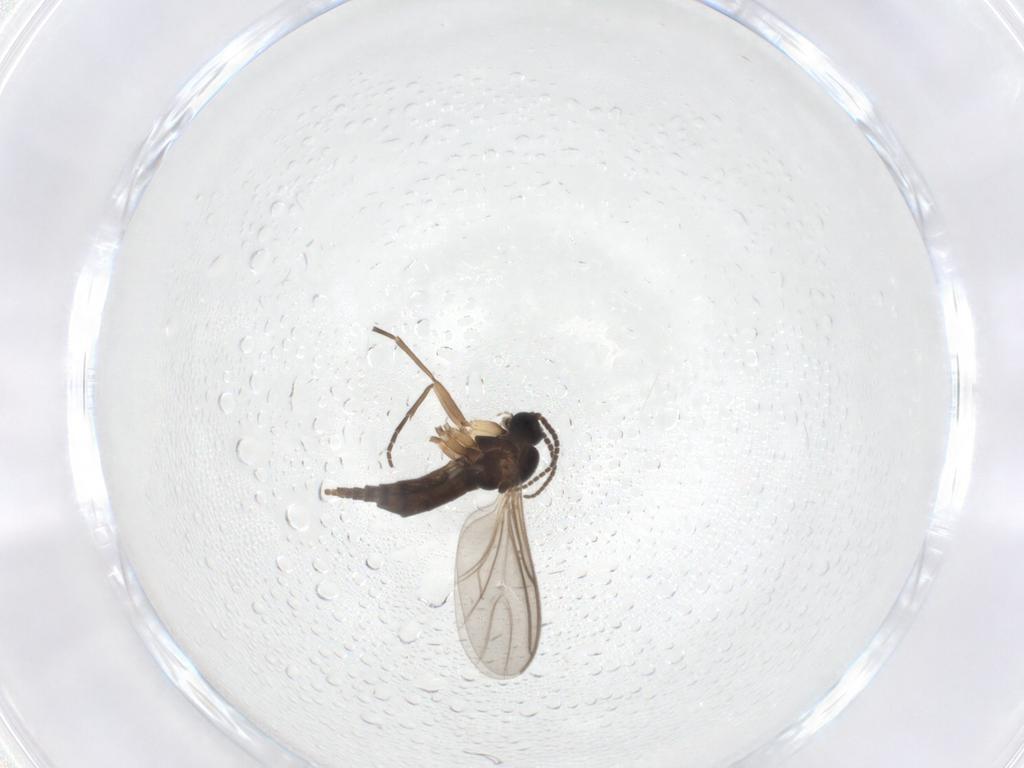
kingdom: Animalia
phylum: Arthropoda
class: Insecta
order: Diptera
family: Sciaridae
